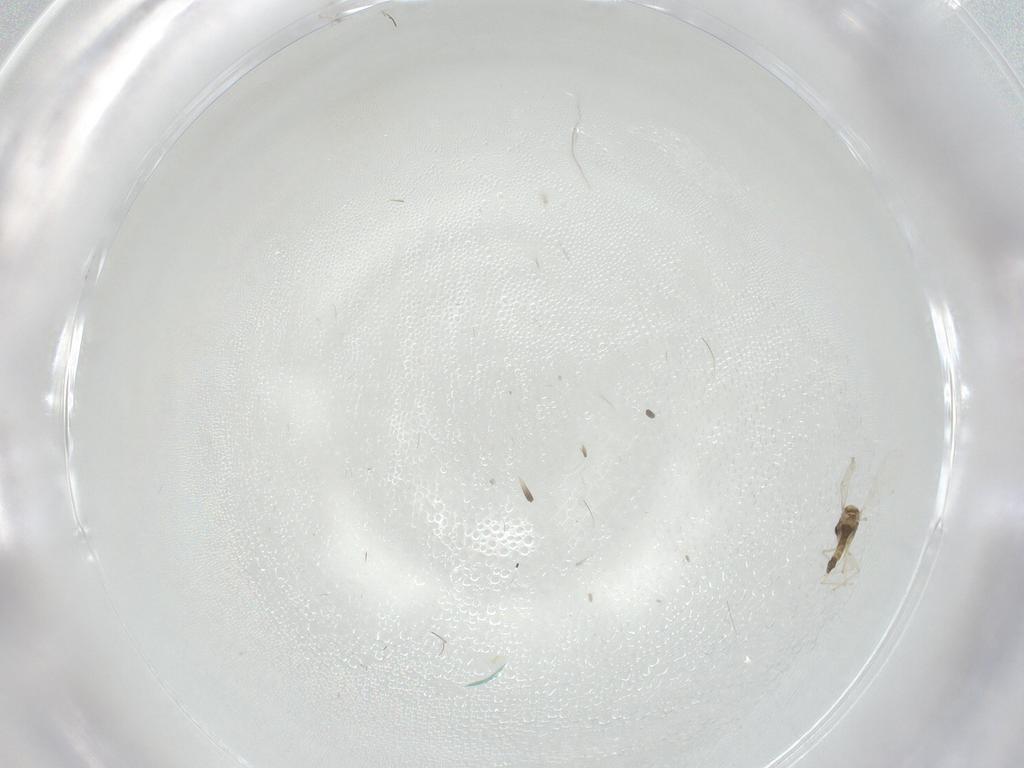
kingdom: Animalia
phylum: Arthropoda
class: Insecta
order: Diptera
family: Chironomidae
